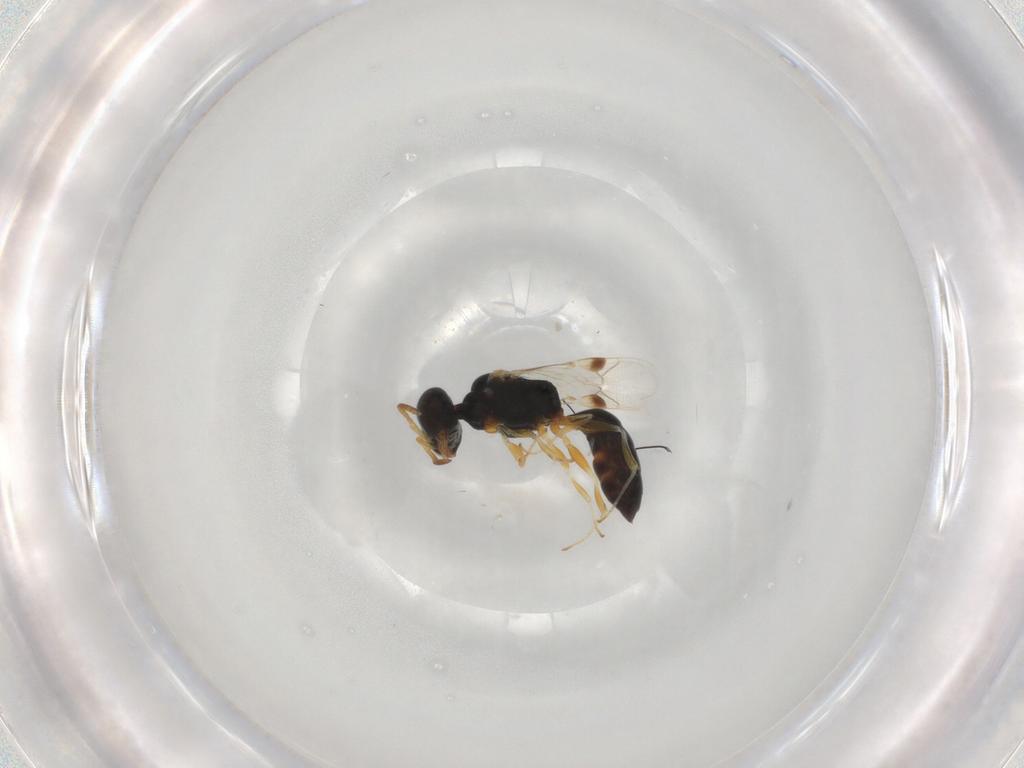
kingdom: Animalia
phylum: Arthropoda
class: Insecta
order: Hymenoptera
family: Pemphredonidae
